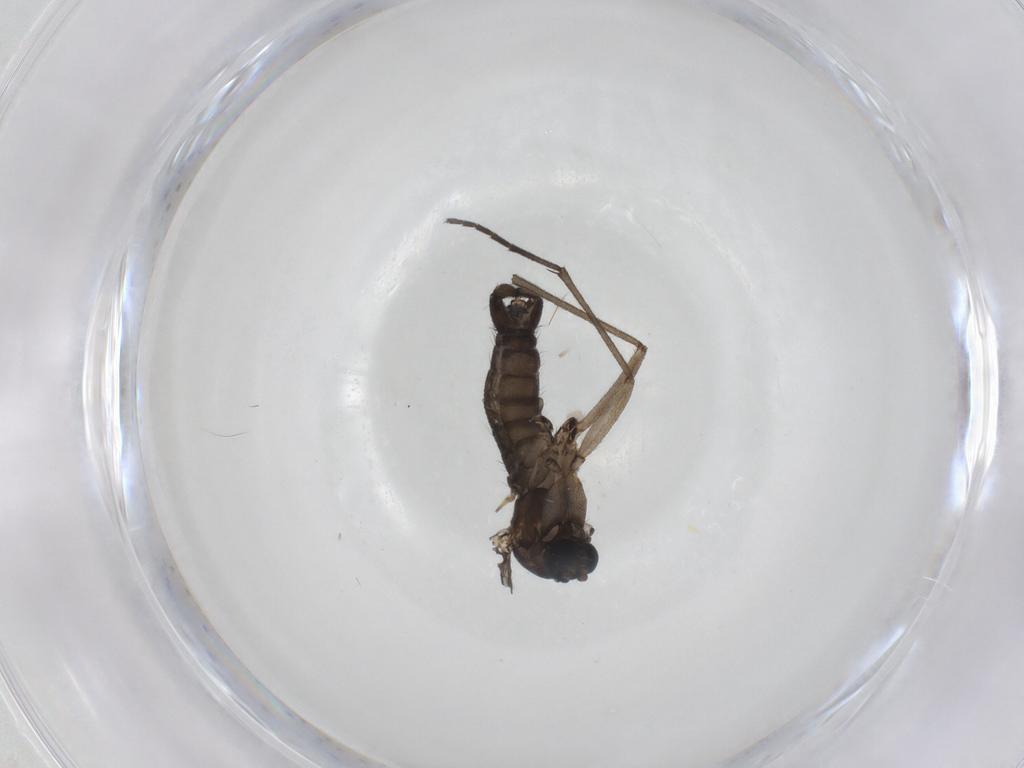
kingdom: Animalia
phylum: Arthropoda
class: Insecta
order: Diptera
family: Sciaridae
